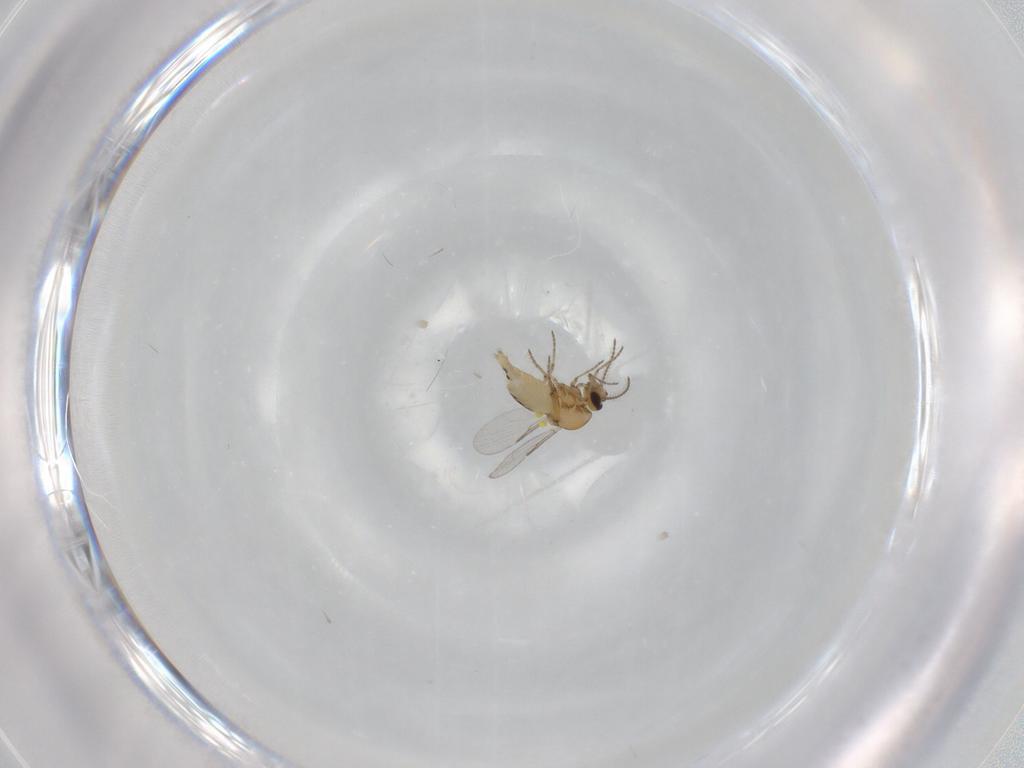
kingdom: Animalia
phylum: Arthropoda
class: Insecta
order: Diptera
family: Ceratopogonidae
